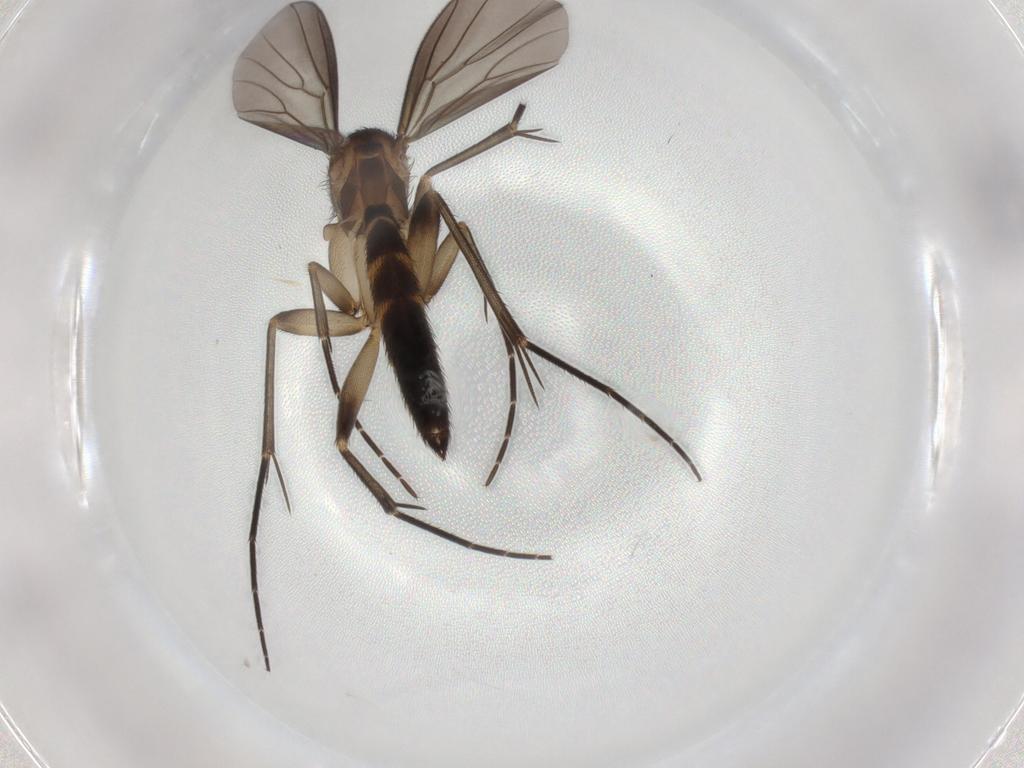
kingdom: Animalia
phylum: Arthropoda
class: Insecta
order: Diptera
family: Mycetophilidae
